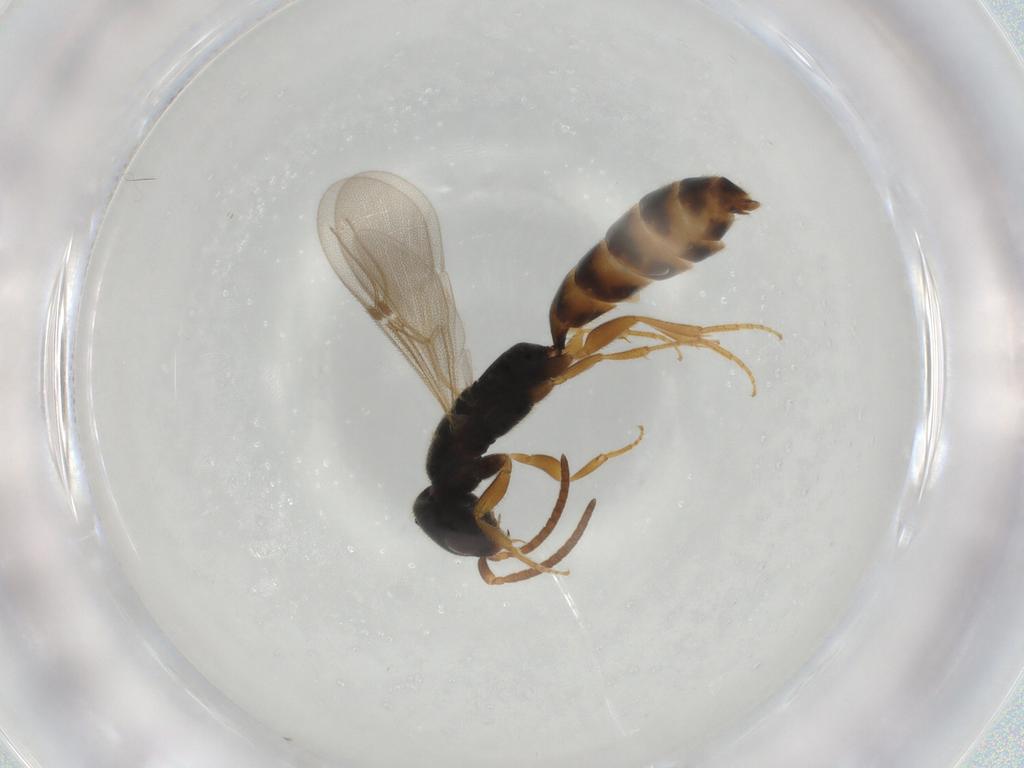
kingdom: Animalia
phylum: Arthropoda
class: Insecta
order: Hymenoptera
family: Bethylidae
